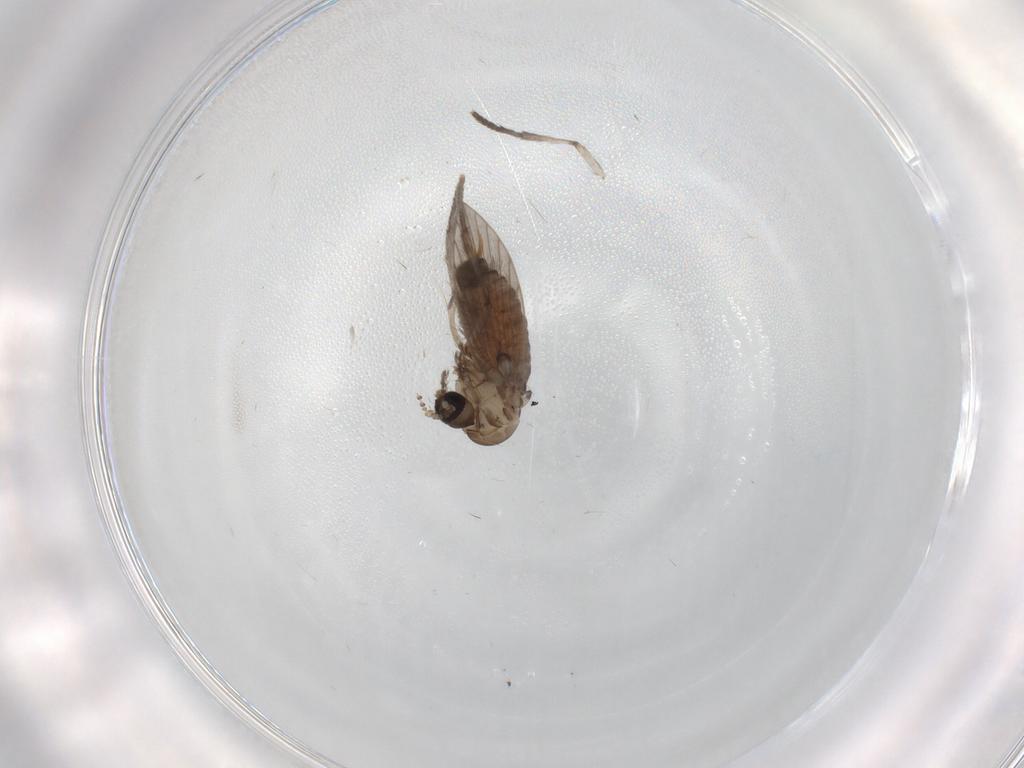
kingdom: Animalia
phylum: Arthropoda
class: Insecta
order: Diptera
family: Psychodidae
